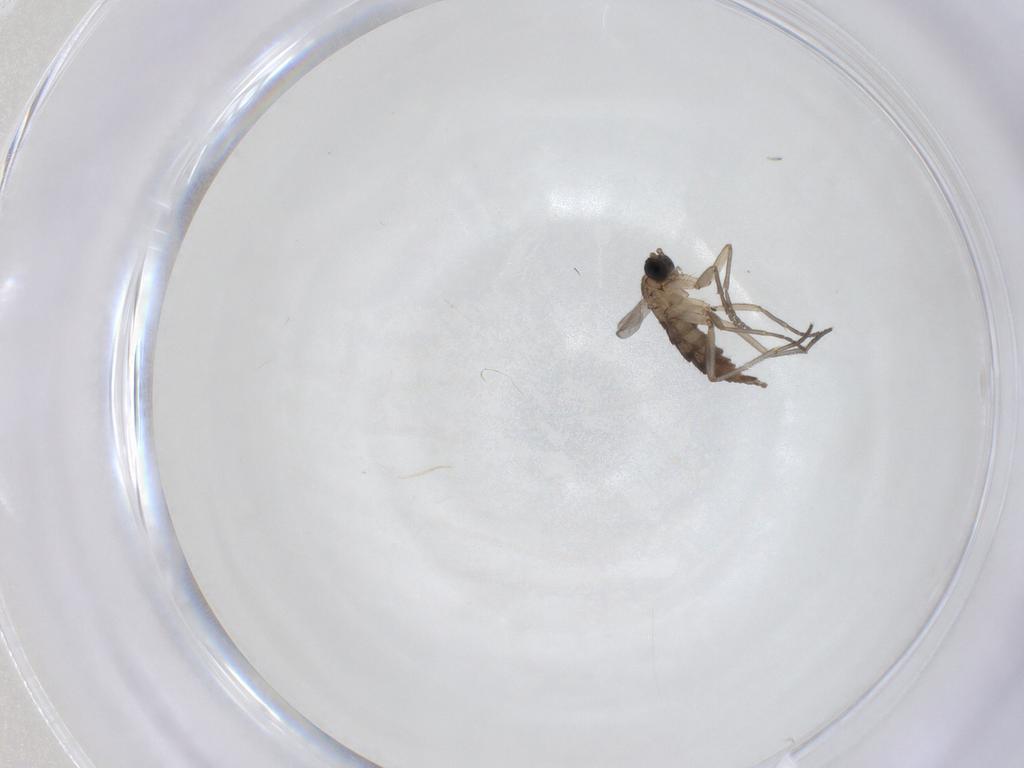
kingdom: Animalia
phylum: Arthropoda
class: Insecta
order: Diptera
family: Sciaridae
